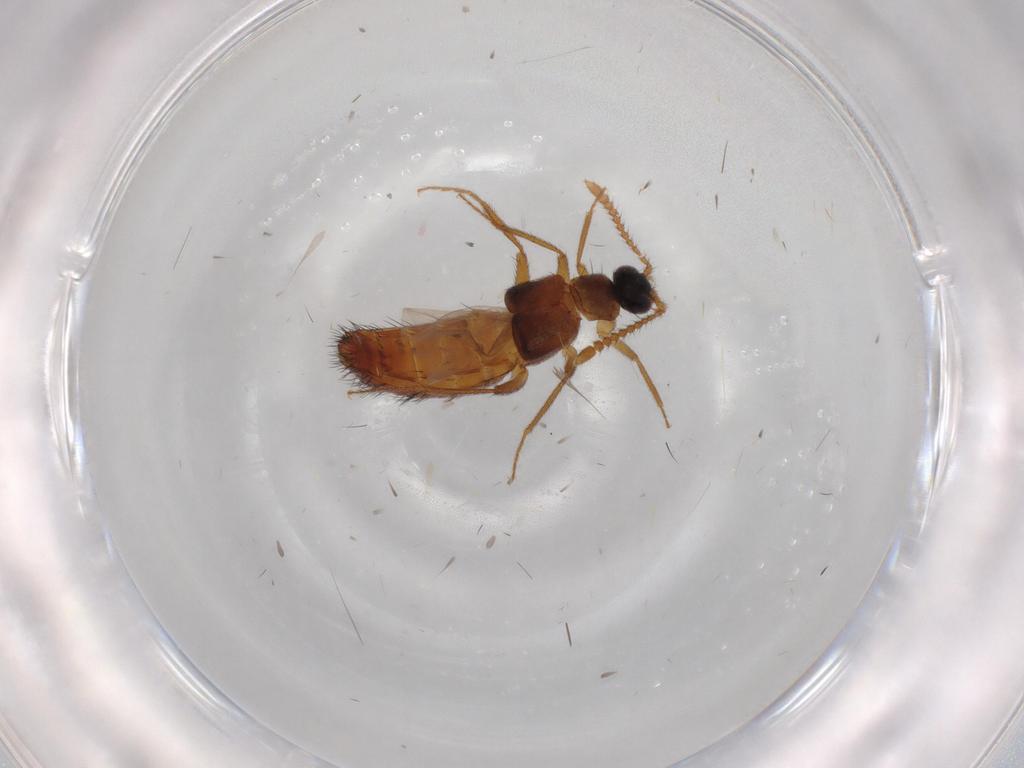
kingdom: Animalia
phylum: Arthropoda
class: Insecta
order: Coleoptera
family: Staphylinidae
